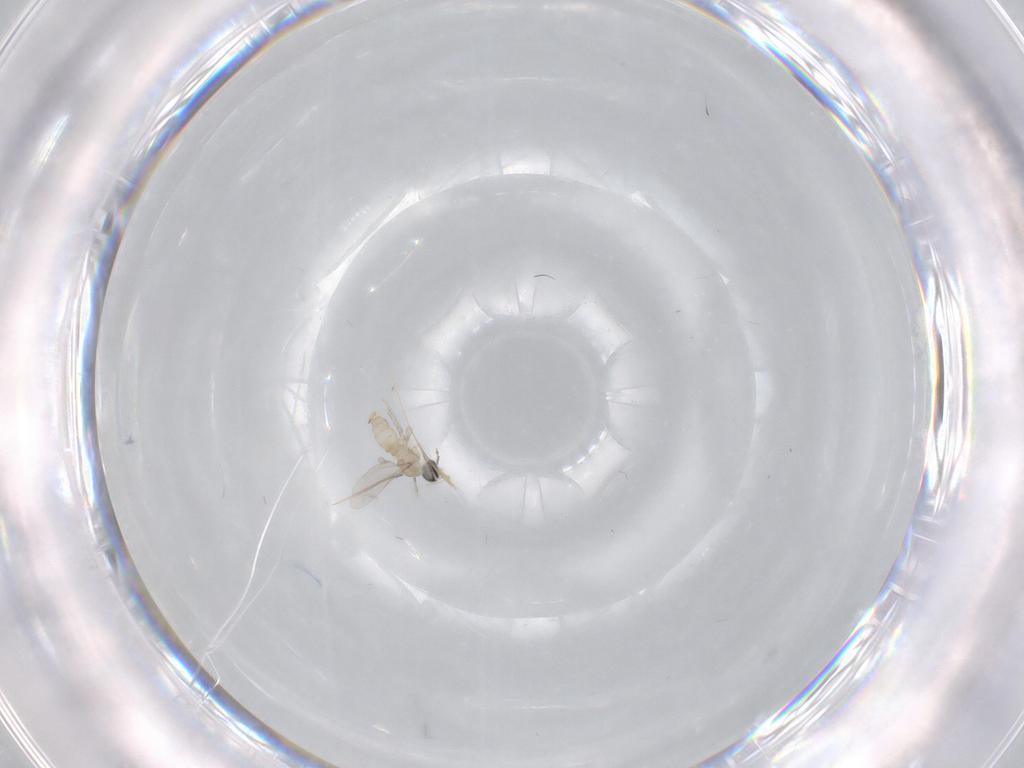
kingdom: Animalia
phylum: Arthropoda
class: Insecta
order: Diptera
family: Cecidomyiidae
